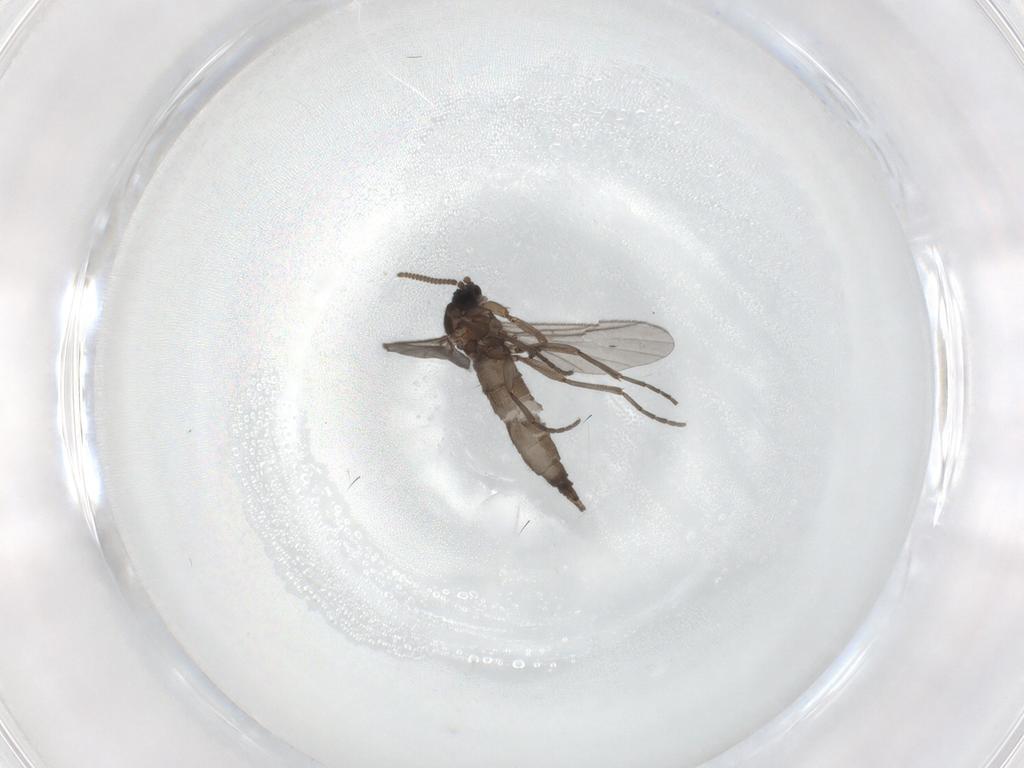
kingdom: Animalia
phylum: Arthropoda
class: Insecta
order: Diptera
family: Sciaridae
